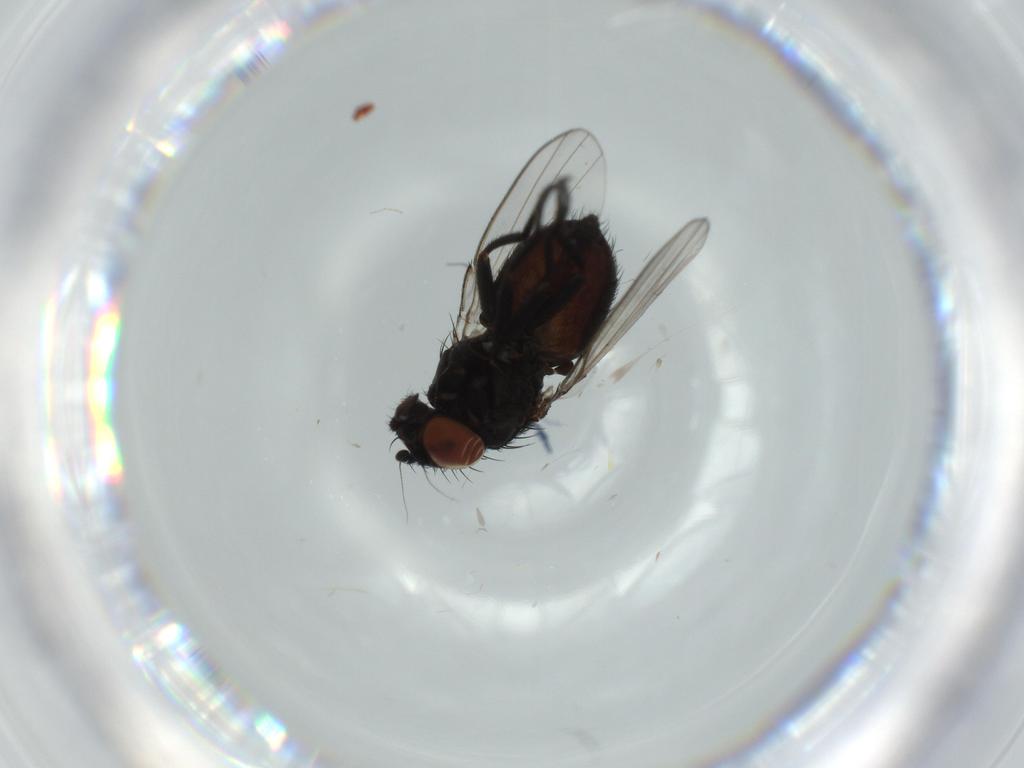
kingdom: Animalia
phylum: Arthropoda
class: Insecta
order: Diptera
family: Milichiidae
